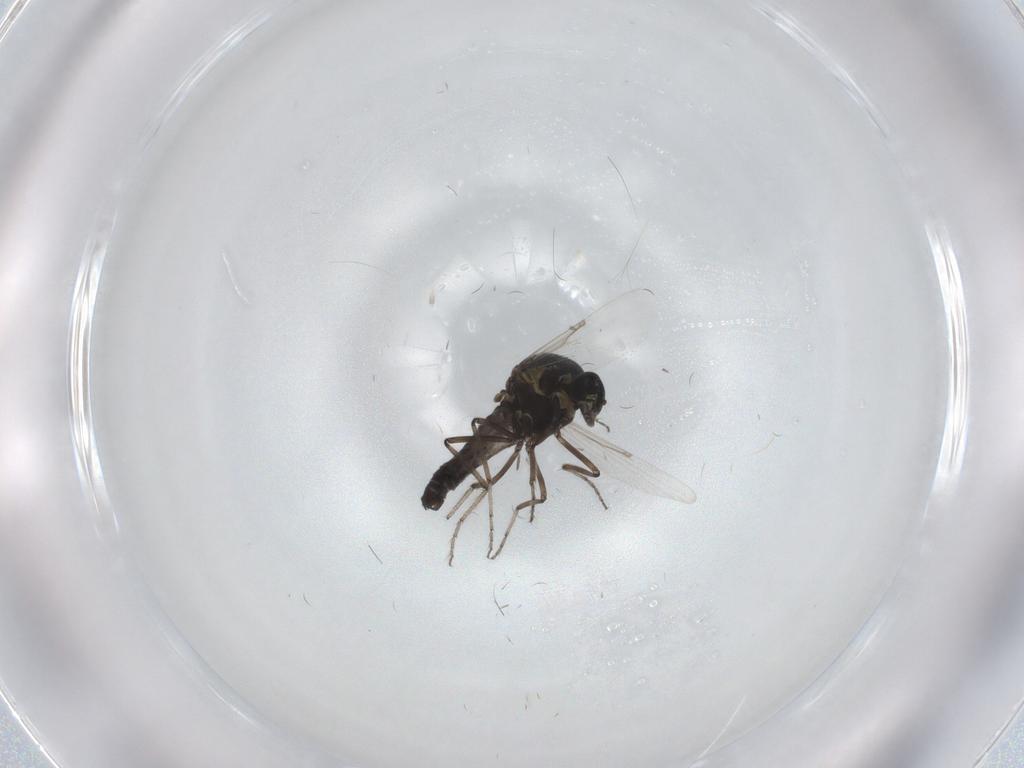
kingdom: Animalia
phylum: Arthropoda
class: Insecta
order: Diptera
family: Ceratopogonidae
